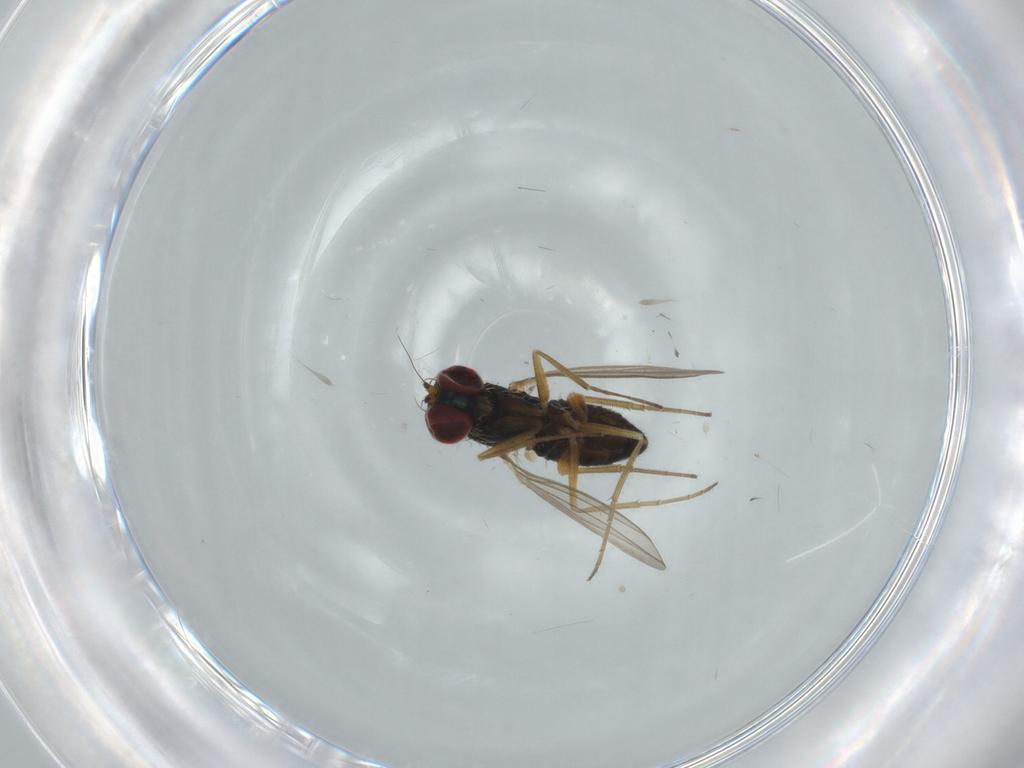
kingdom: Animalia
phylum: Arthropoda
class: Insecta
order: Diptera
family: Dolichopodidae
